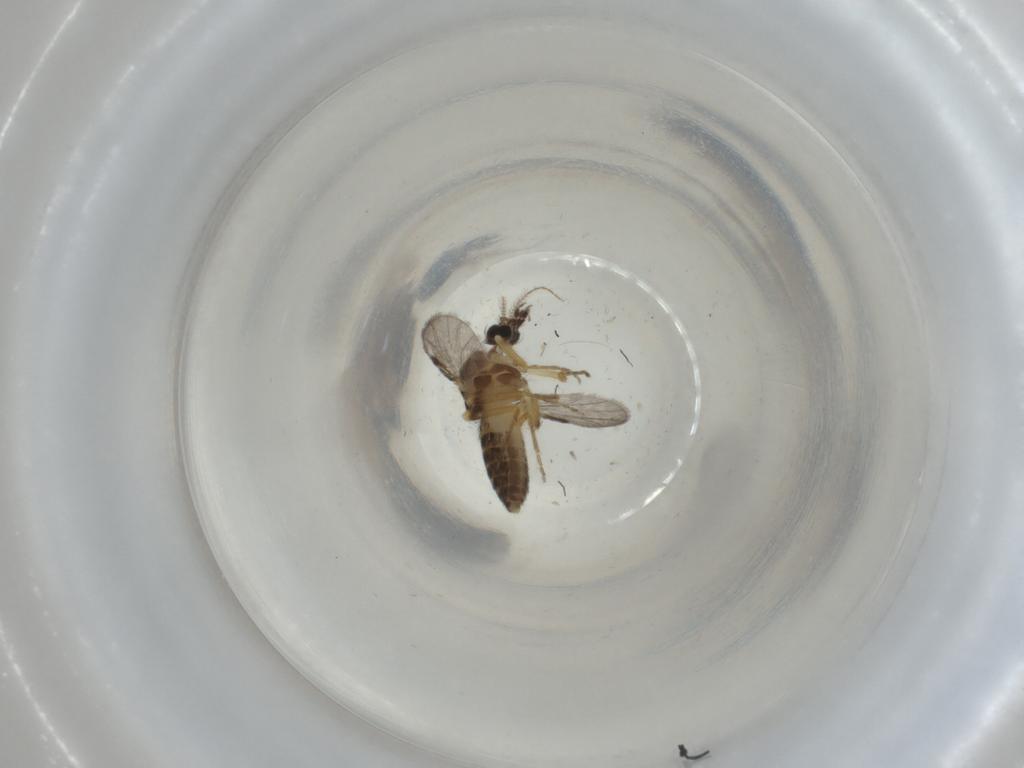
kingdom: Animalia
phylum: Arthropoda
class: Insecta
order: Diptera
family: Ceratopogonidae
